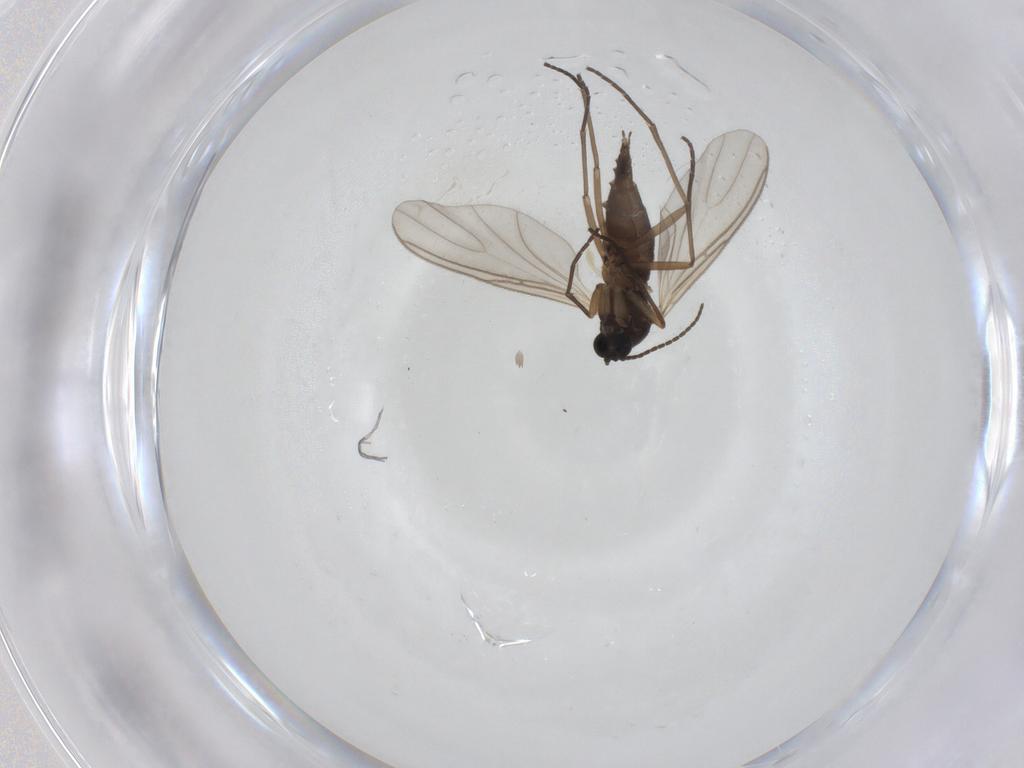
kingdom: Animalia
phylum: Arthropoda
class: Insecta
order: Diptera
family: Sciaridae
